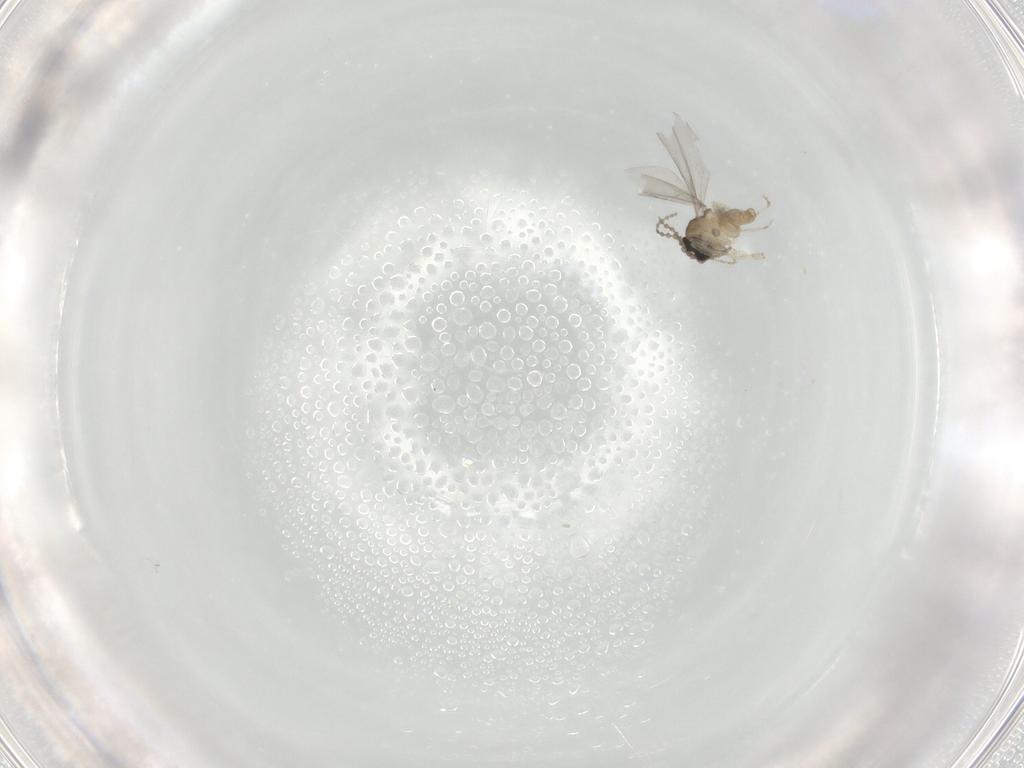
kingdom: Animalia
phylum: Arthropoda
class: Insecta
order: Diptera
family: Cecidomyiidae
